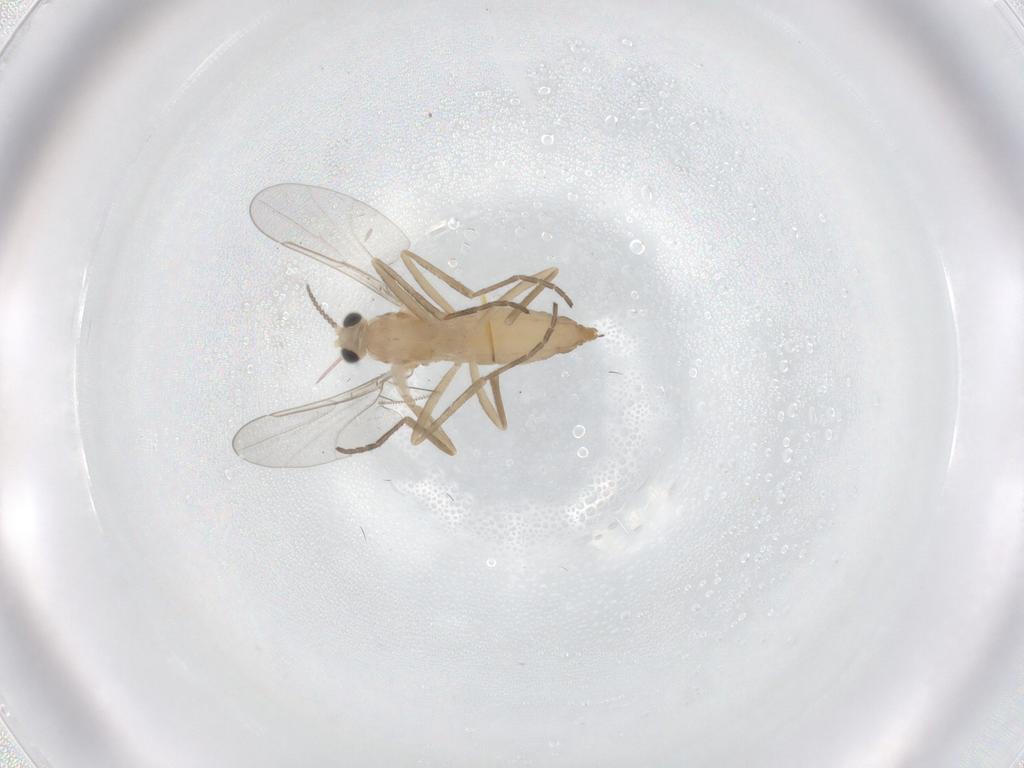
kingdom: Animalia
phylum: Arthropoda
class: Insecta
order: Diptera
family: Cecidomyiidae
